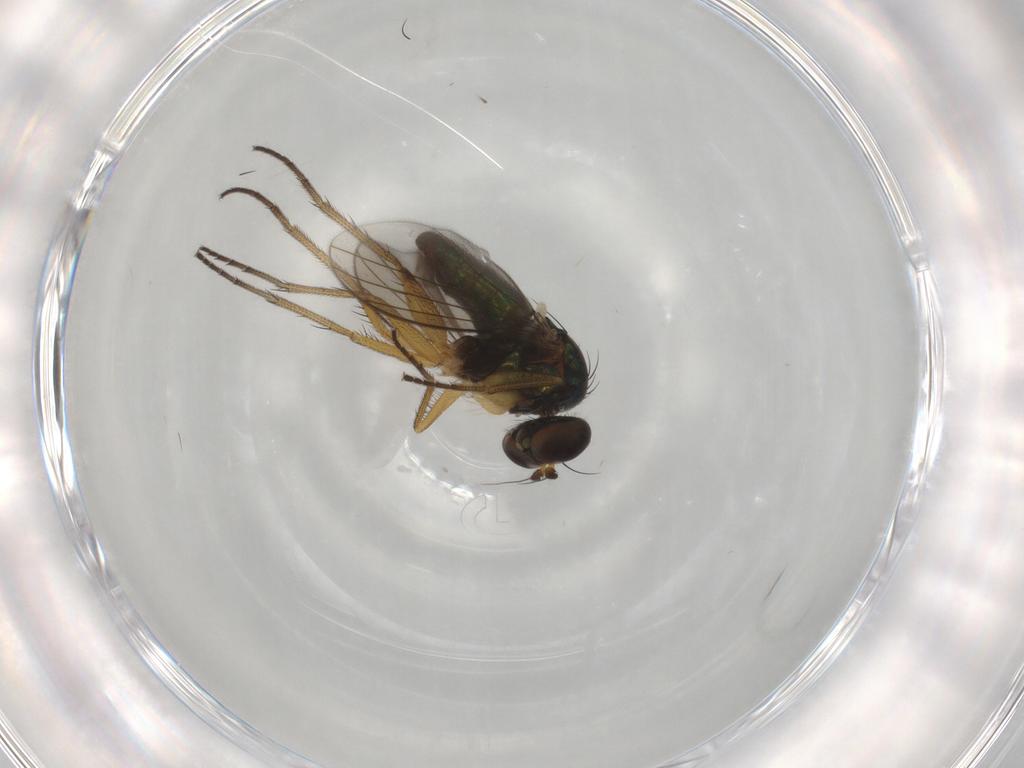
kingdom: Animalia
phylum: Arthropoda
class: Insecta
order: Diptera
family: Dolichopodidae
